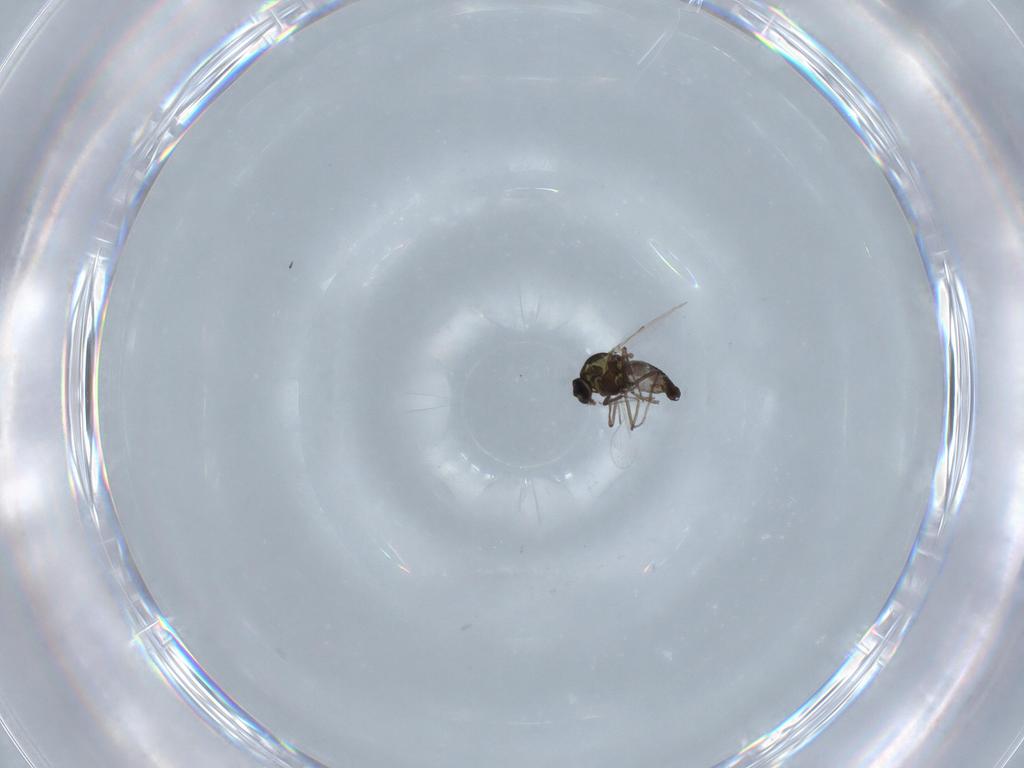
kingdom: Animalia
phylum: Arthropoda
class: Insecta
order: Diptera
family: Ceratopogonidae
